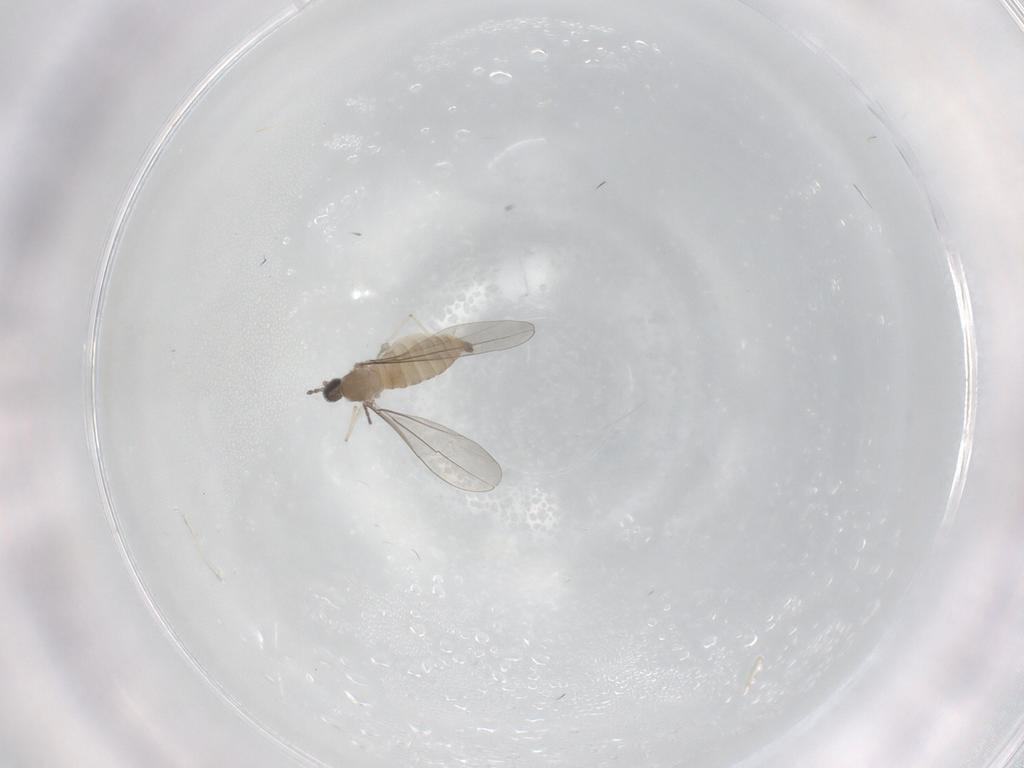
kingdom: Animalia
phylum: Arthropoda
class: Insecta
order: Diptera
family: Cecidomyiidae
